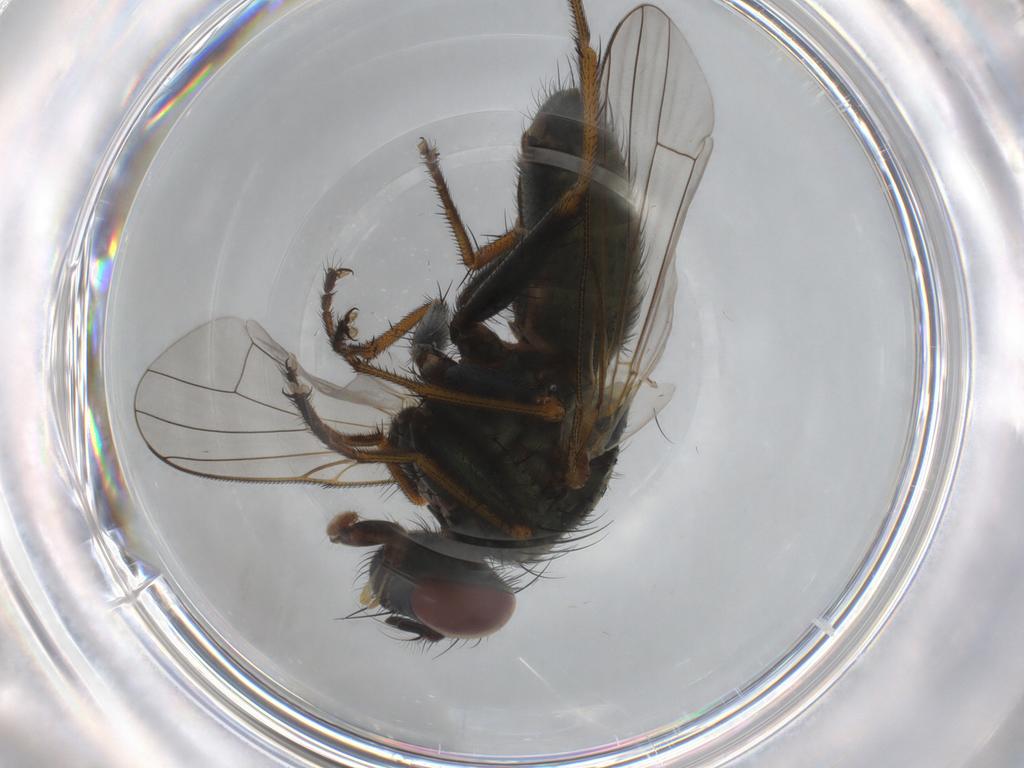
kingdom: Animalia
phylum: Arthropoda
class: Insecta
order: Diptera
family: Muscidae
